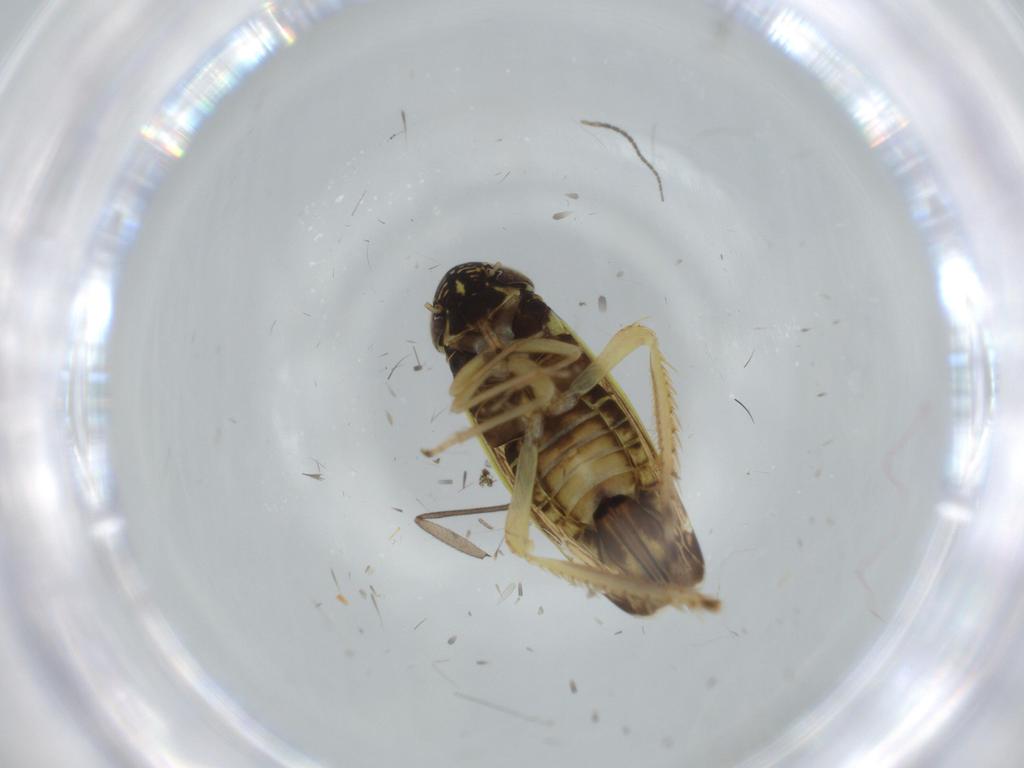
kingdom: Animalia
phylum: Arthropoda
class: Insecta
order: Hemiptera
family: Cicadellidae
